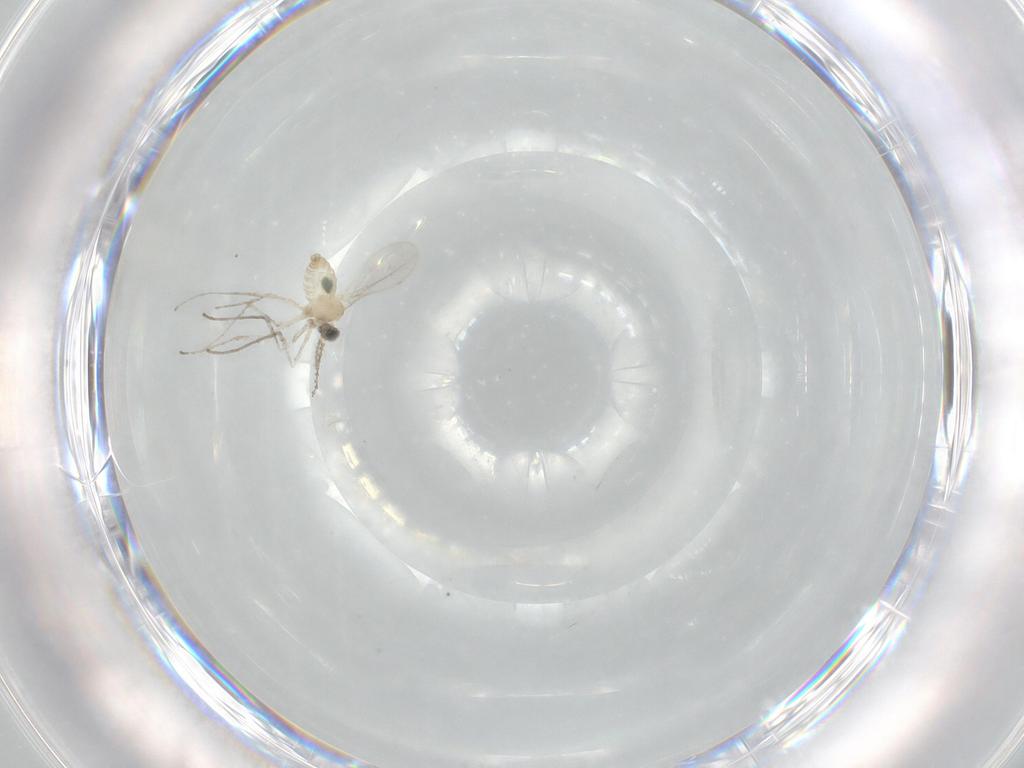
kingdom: Animalia
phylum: Arthropoda
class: Insecta
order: Diptera
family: Cecidomyiidae
